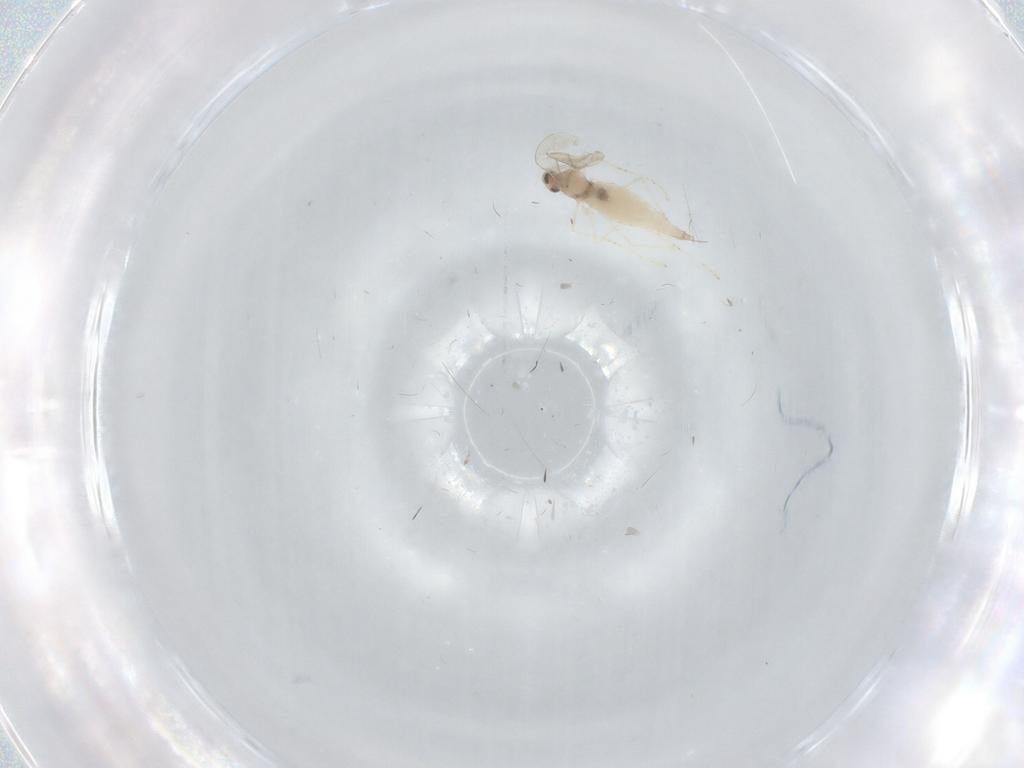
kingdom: Animalia
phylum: Arthropoda
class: Insecta
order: Diptera
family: Cecidomyiidae
